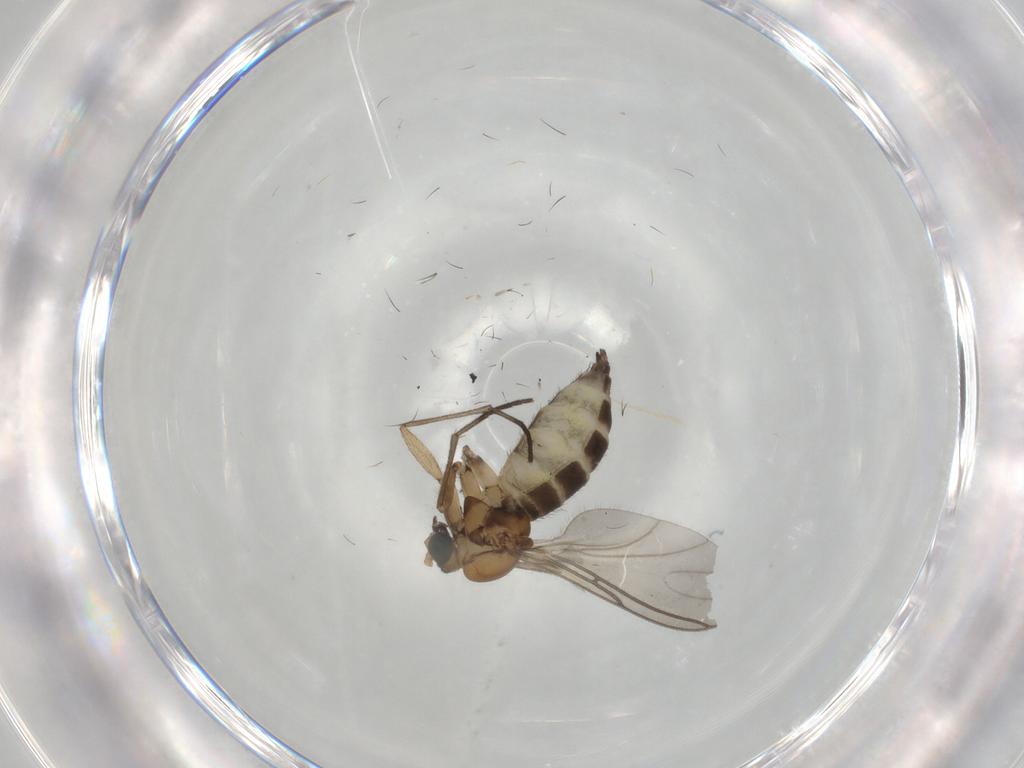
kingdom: Animalia
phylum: Arthropoda
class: Insecta
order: Diptera
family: Sciaridae
